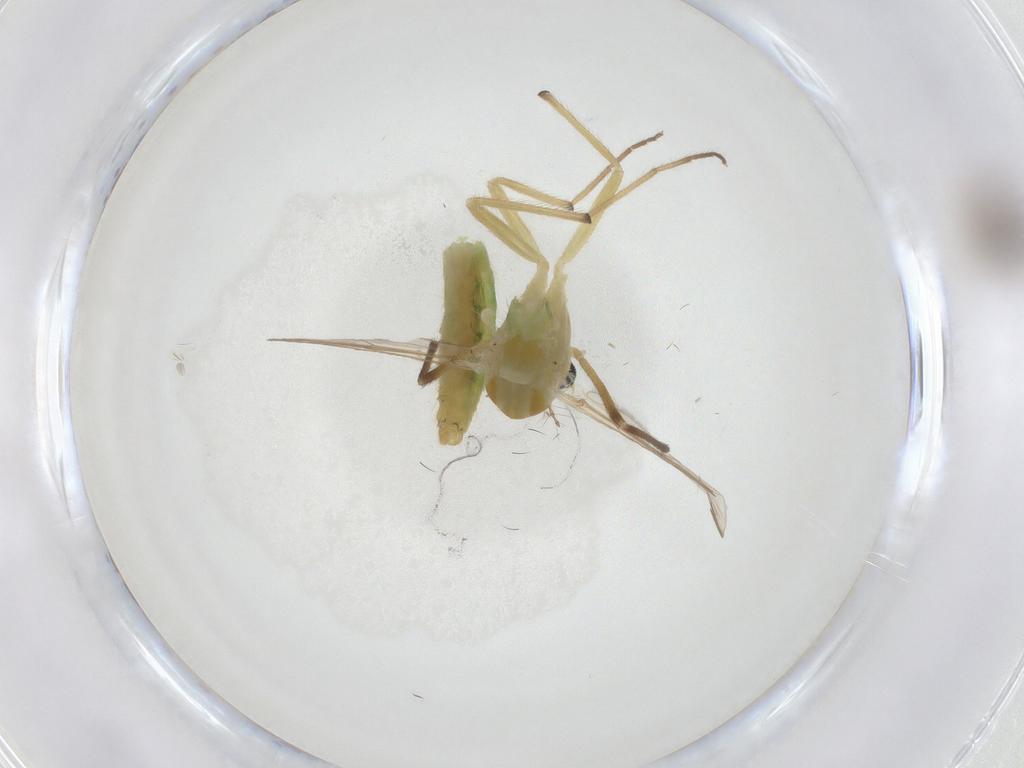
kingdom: Animalia
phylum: Arthropoda
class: Insecta
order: Diptera
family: Chironomidae
